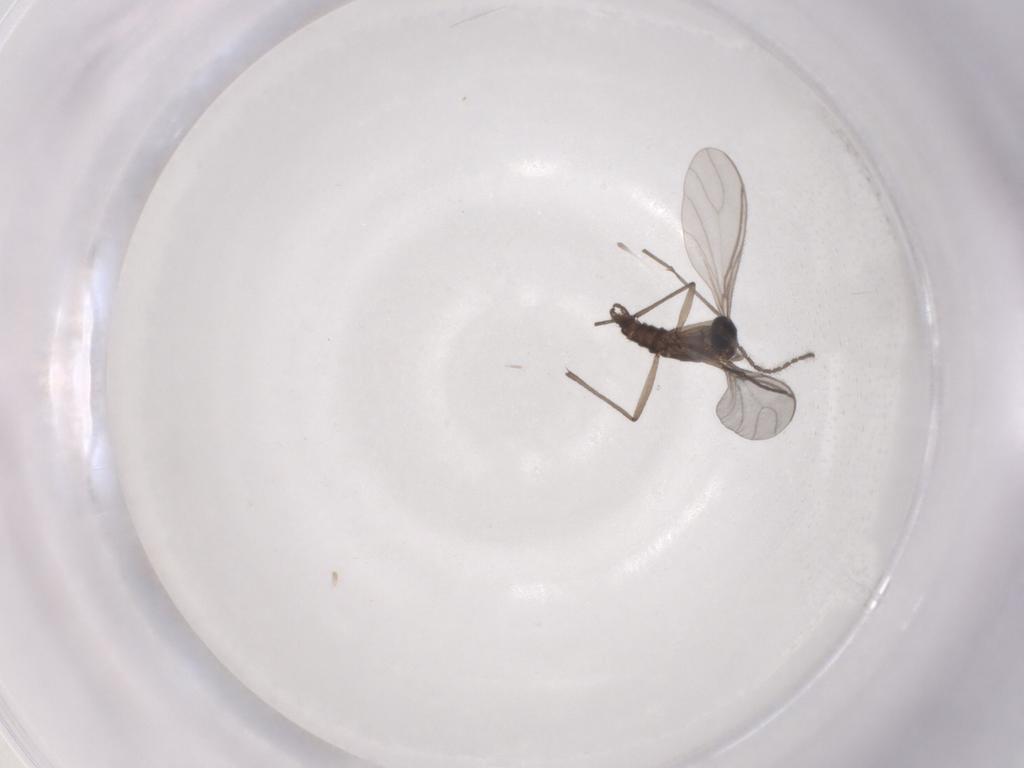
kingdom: Animalia
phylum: Arthropoda
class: Insecta
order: Diptera
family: Sciaridae
